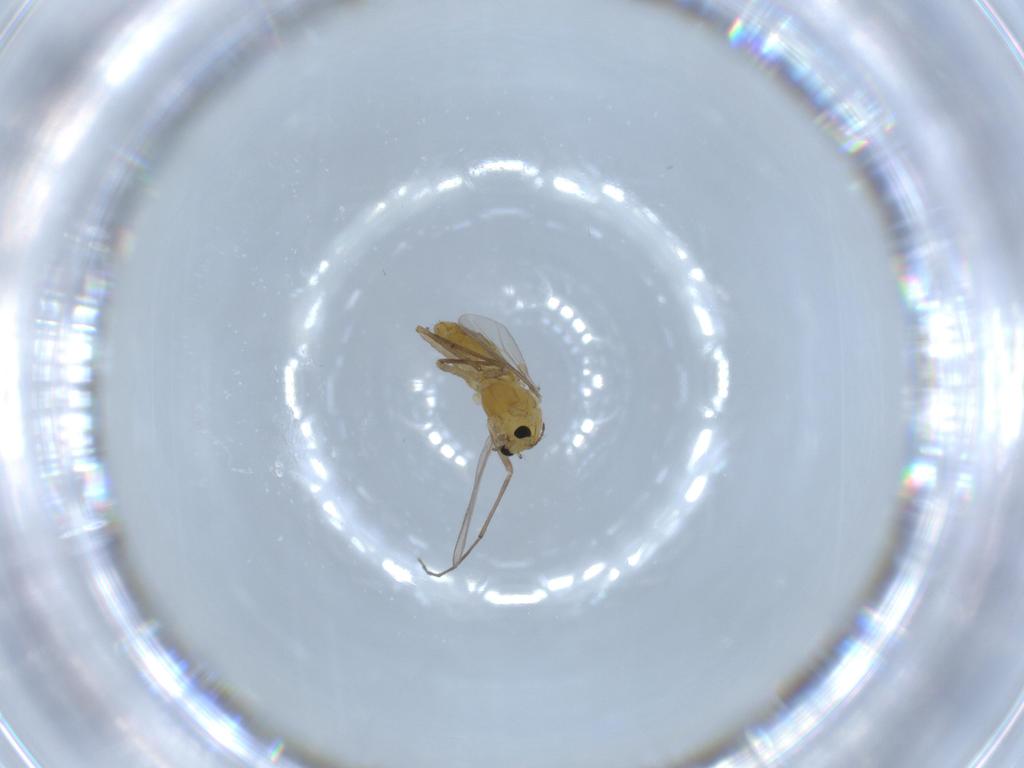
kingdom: Animalia
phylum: Arthropoda
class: Insecta
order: Diptera
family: Chironomidae
